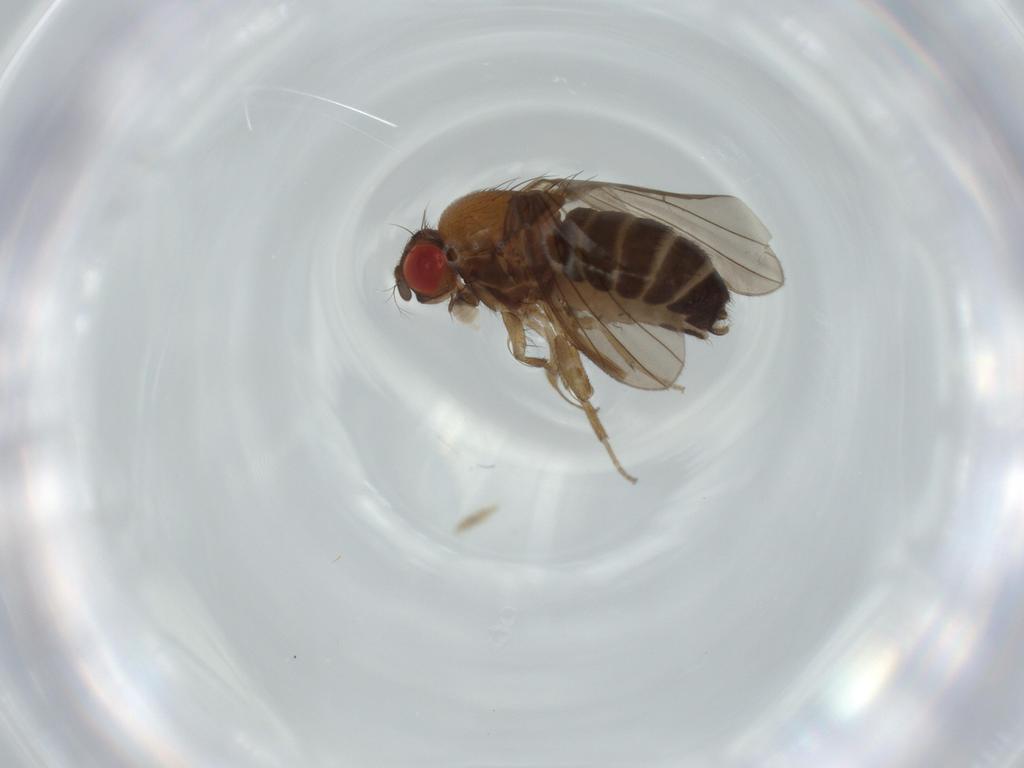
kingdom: Animalia
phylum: Arthropoda
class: Insecta
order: Diptera
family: Drosophilidae
